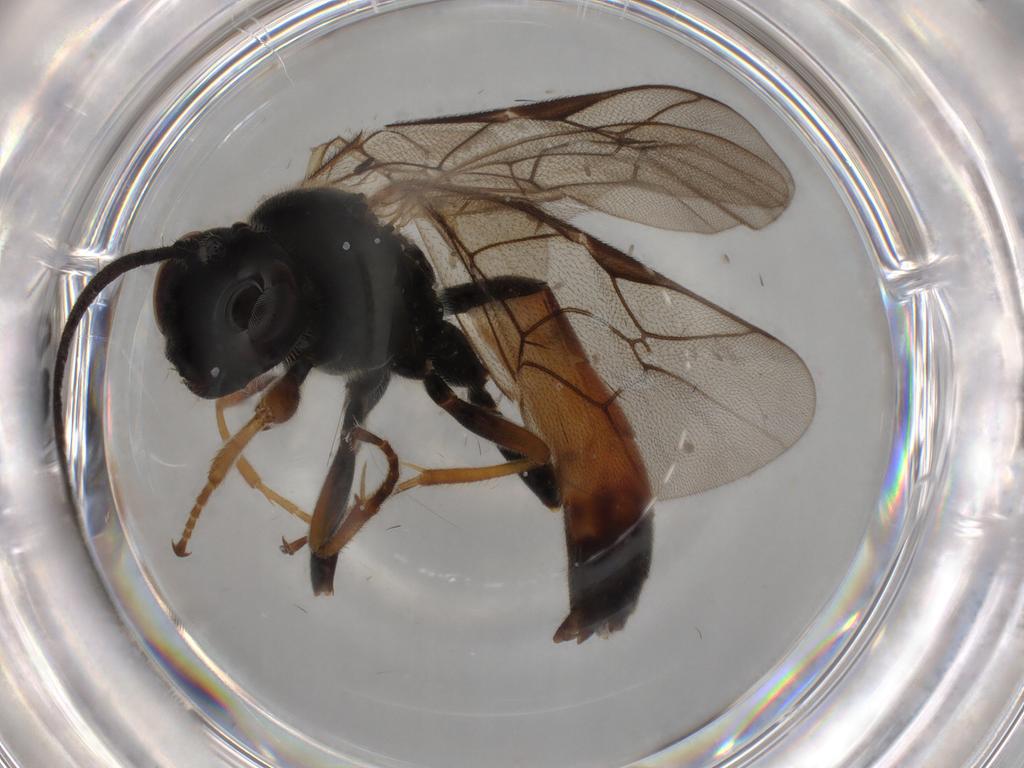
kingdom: Animalia
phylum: Arthropoda
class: Insecta
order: Hymenoptera
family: Ichneumonidae
